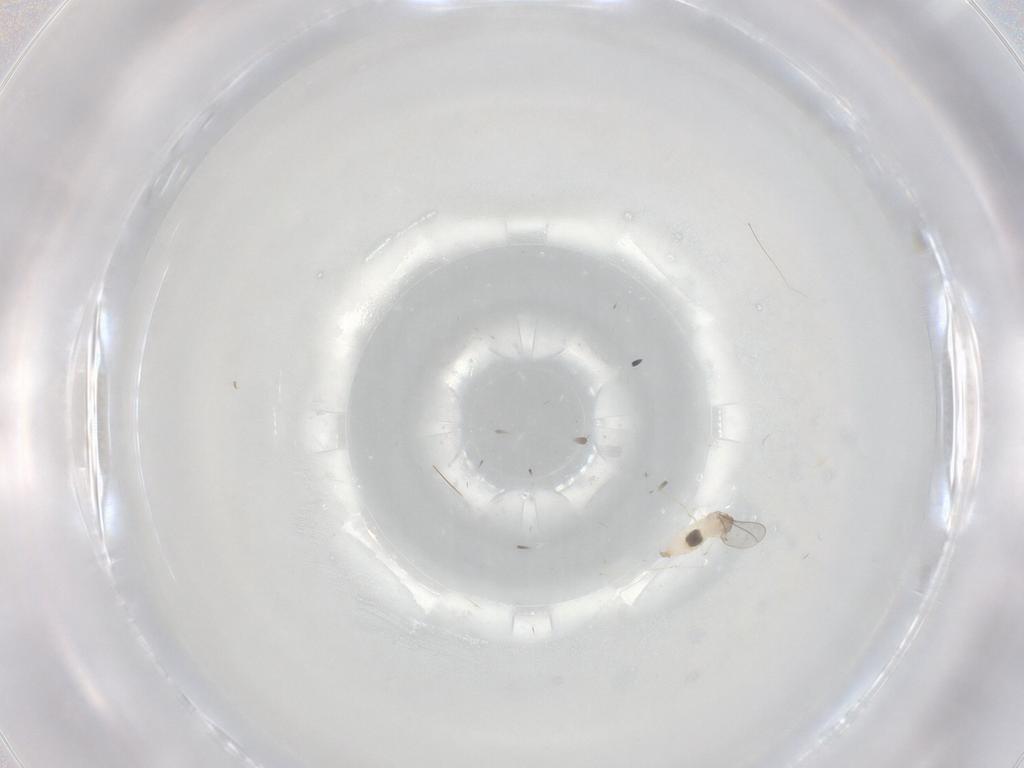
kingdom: Animalia
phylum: Arthropoda
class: Insecta
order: Diptera
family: Cecidomyiidae
